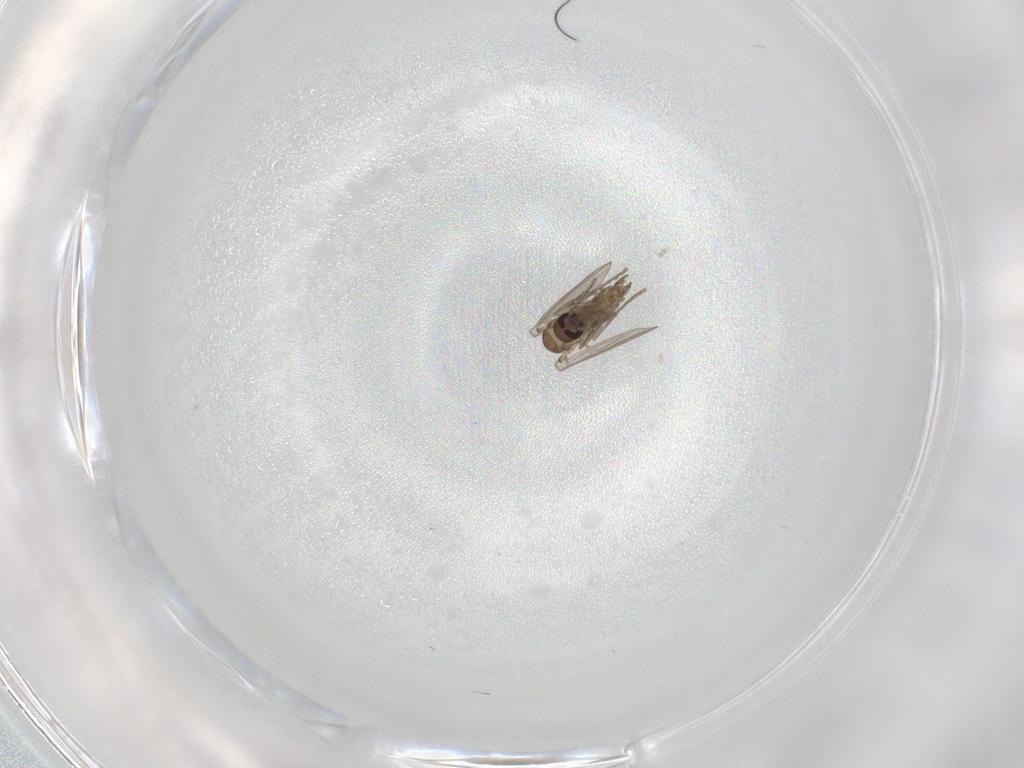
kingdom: Animalia
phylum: Arthropoda
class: Insecta
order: Diptera
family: Psychodidae
